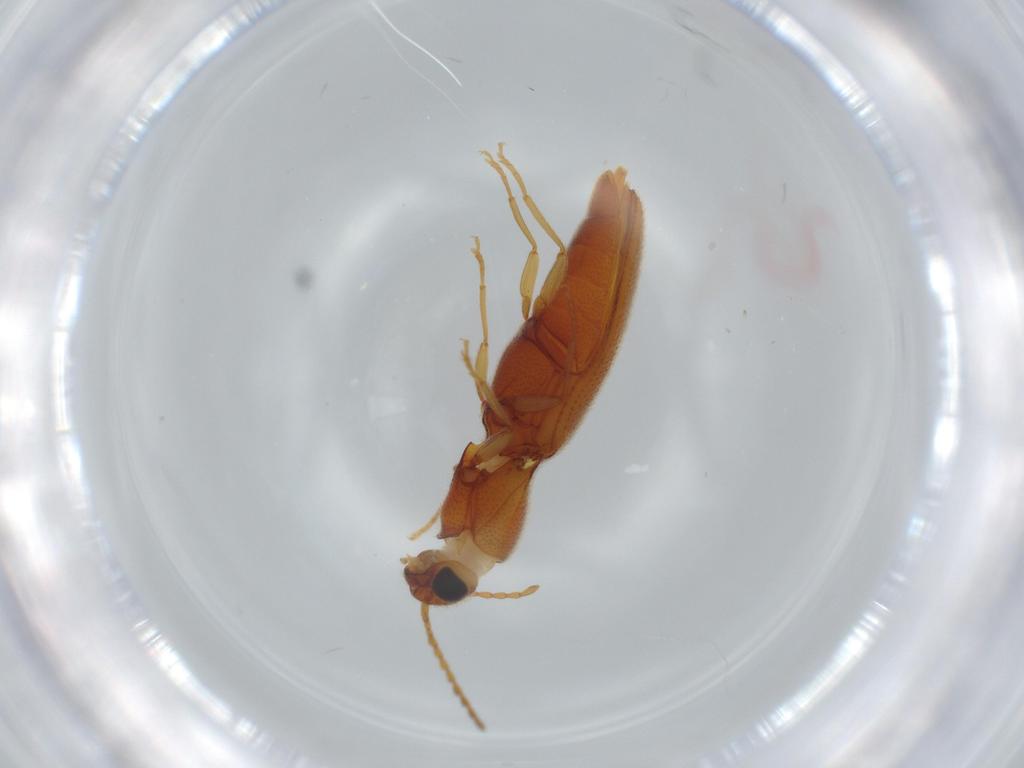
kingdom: Animalia
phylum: Arthropoda
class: Insecta
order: Coleoptera
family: Elateridae
